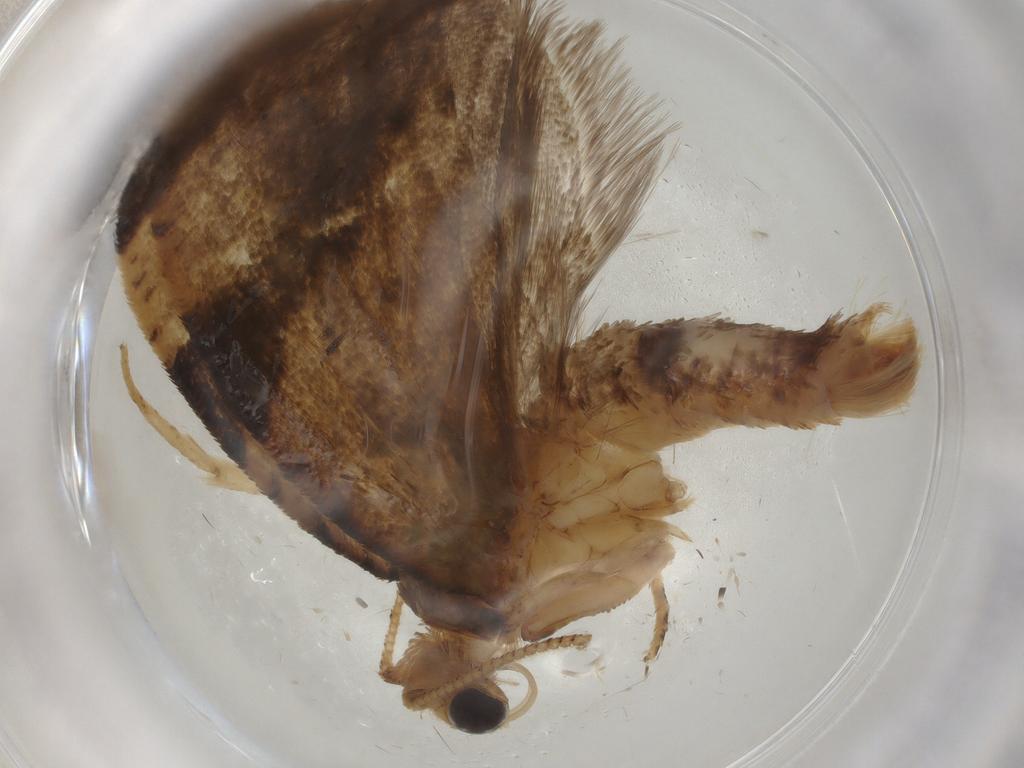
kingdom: Animalia
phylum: Arthropoda
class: Insecta
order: Lepidoptera
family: Tortricidae
